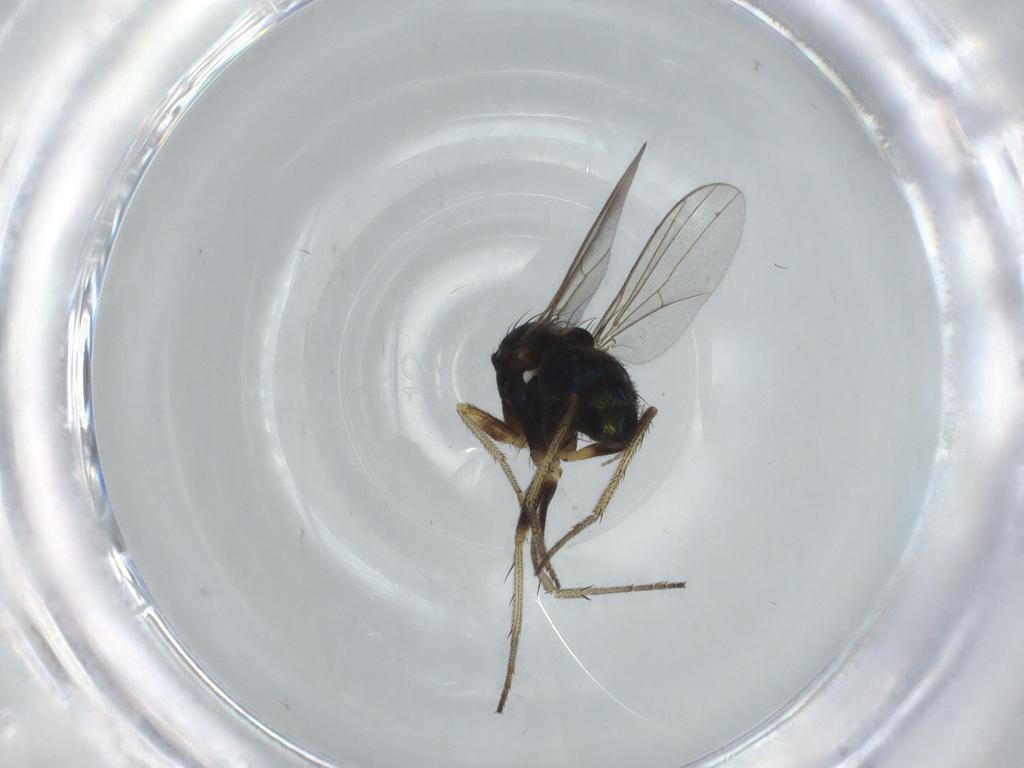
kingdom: Animalia
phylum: Arthropoda
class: Insecta
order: Diptera
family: Chironomidae
